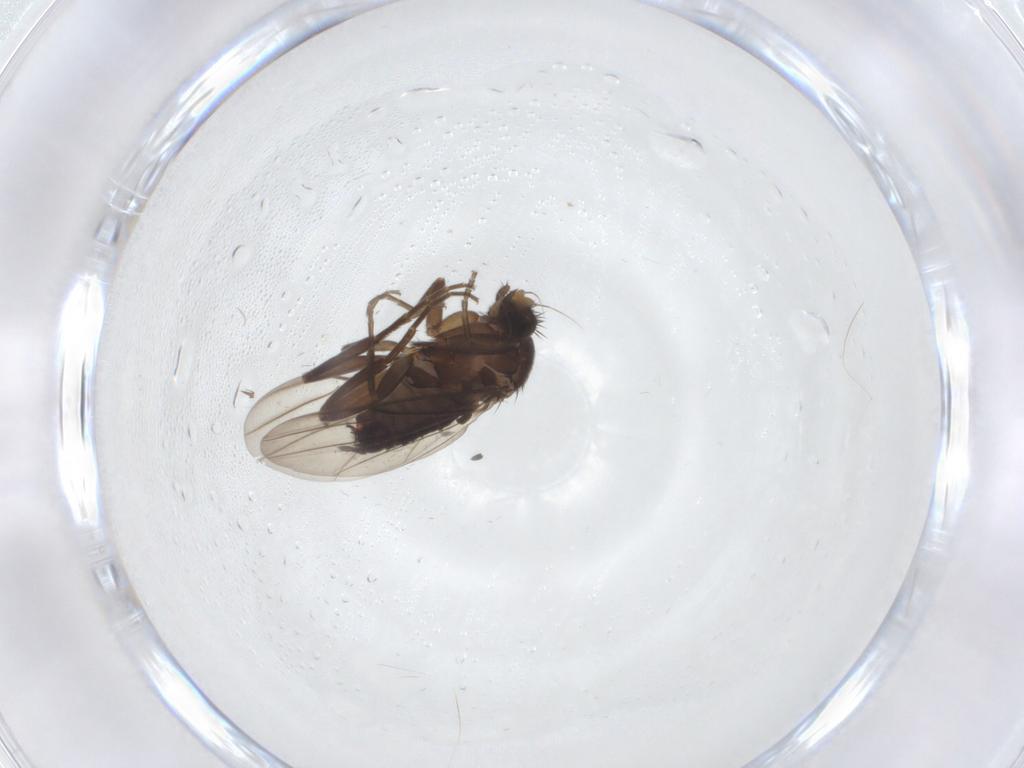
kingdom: Animalia
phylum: Arthropoda
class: Insecta
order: Diptera
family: Sciaridae
